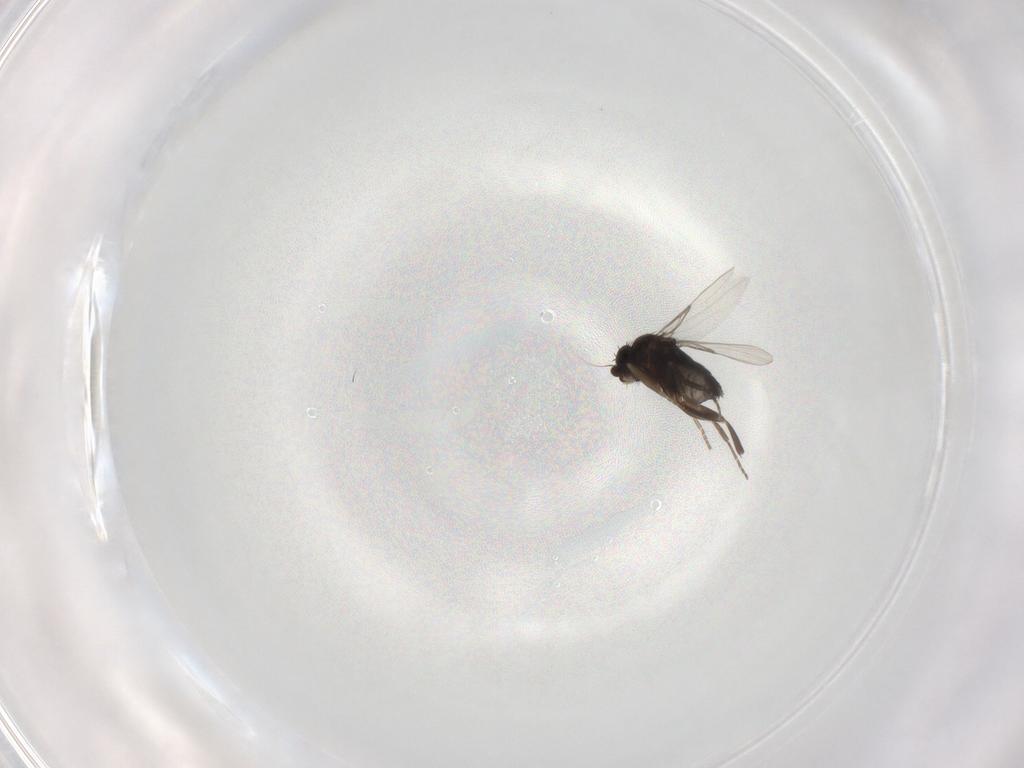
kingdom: Animalia
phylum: Arthropoda
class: Insecta
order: Diptera
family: Phoridae
